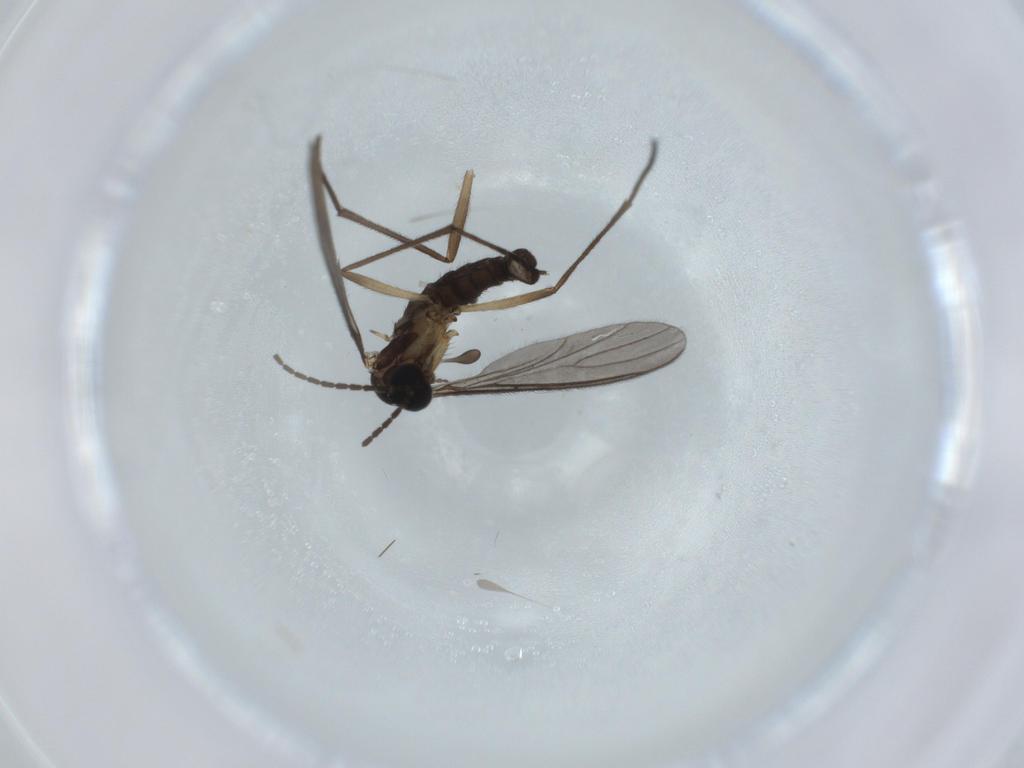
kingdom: Animalia
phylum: Arthropoda
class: Insecta
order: Diptera
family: Sciaridae
